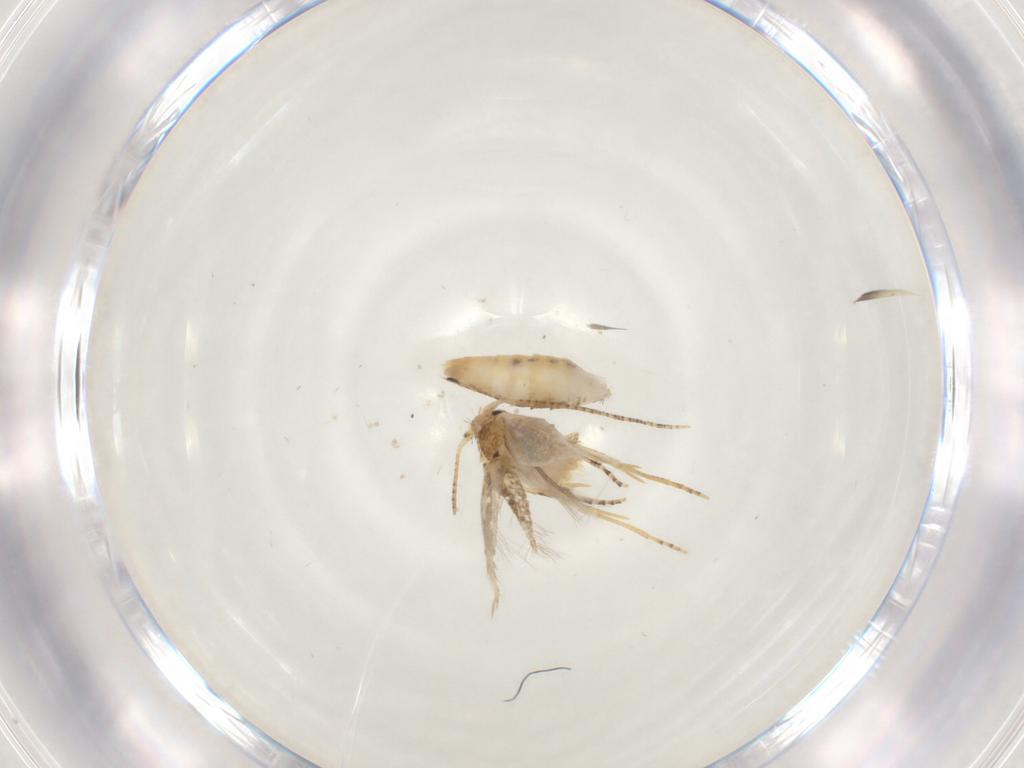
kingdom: Animalia
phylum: Arthropoda
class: Insecta
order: Lepidoptera
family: Bucculatricidae
